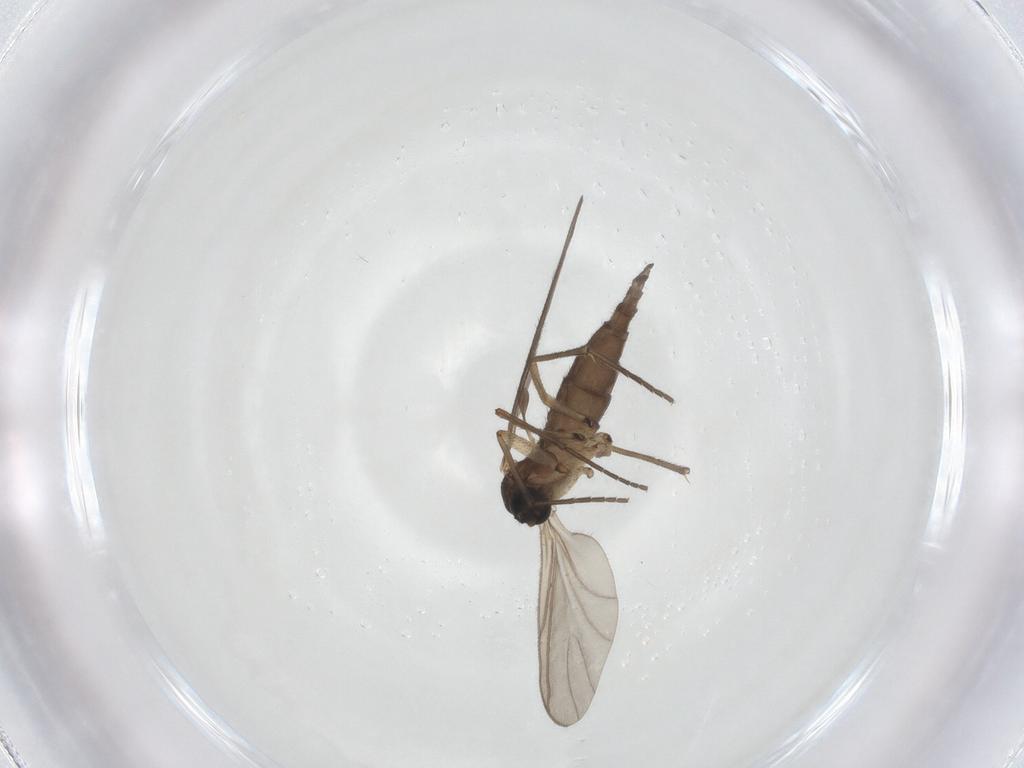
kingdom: Animalia
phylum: Arthropoda
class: Insecta
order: Diptera
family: Sciaridae
